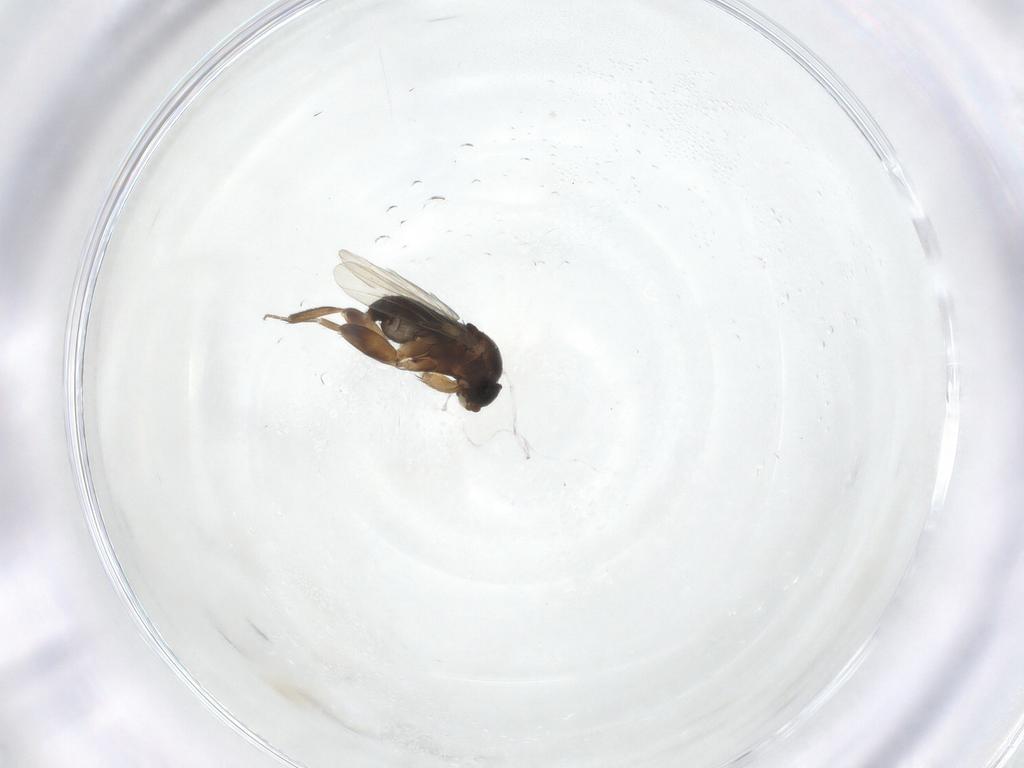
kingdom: Animalia
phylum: Arthropoda
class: Insecta
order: Diptera
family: Phoridae
